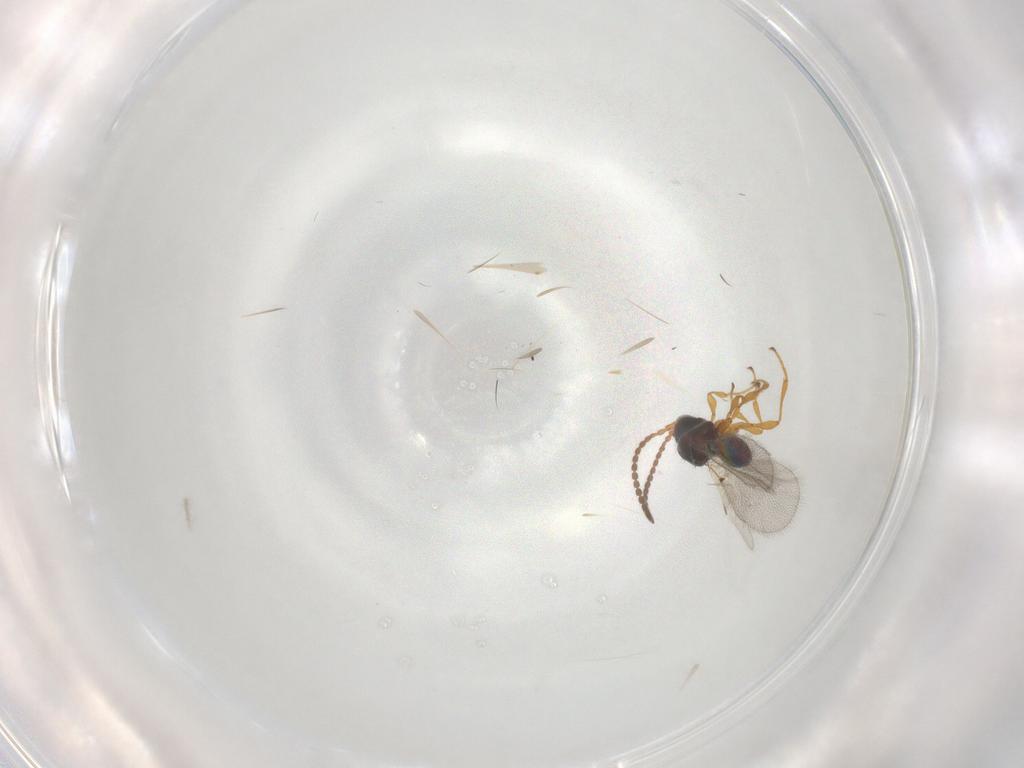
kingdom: Animalia
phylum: Arthropoda
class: Insecta
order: Hymenoptera
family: Diapriidae
